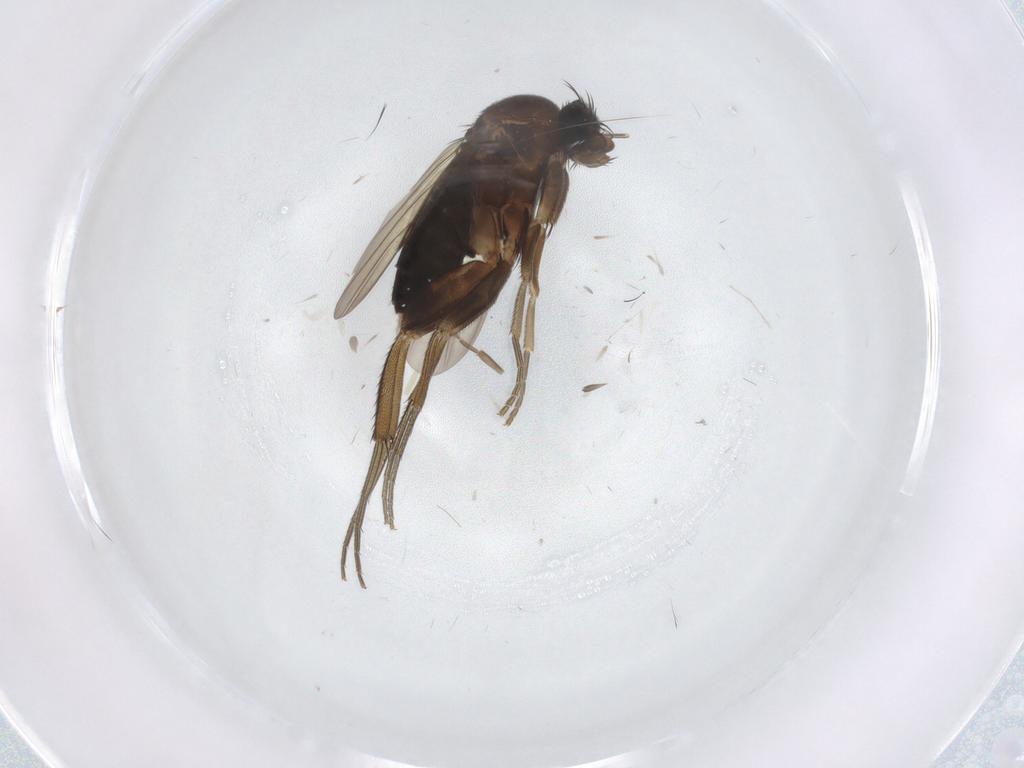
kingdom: Animalia
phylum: Arthropoda
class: Insecta
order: Diptera
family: Phoridae
